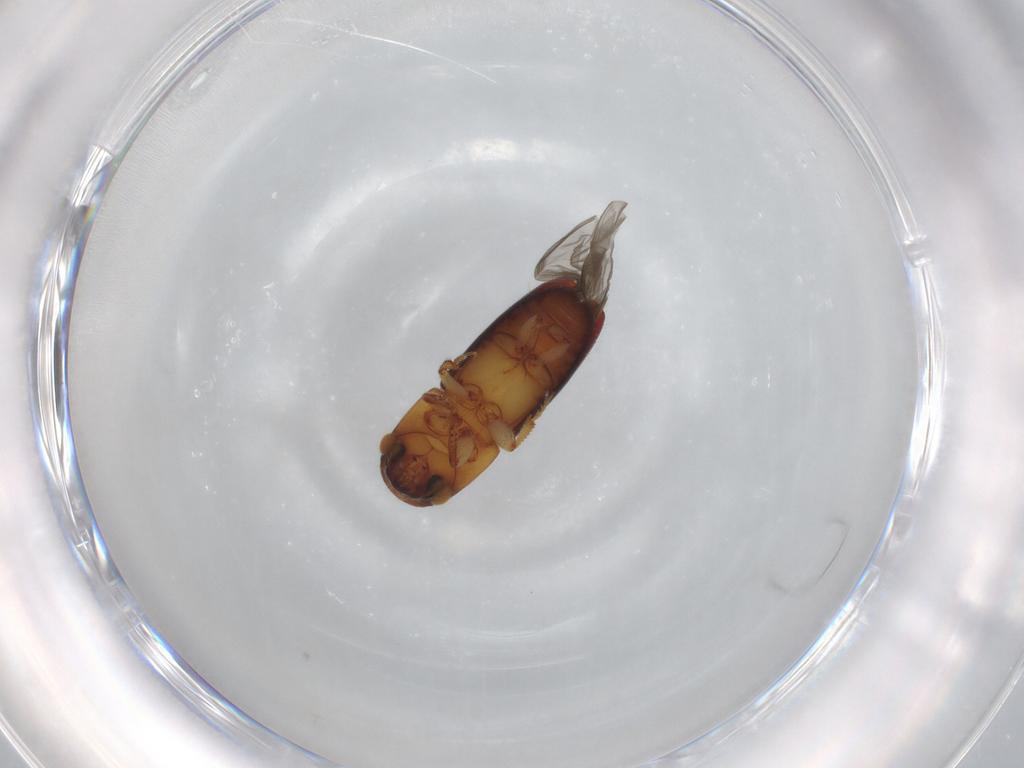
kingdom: Animalia
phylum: Arthropoda
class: Insecta
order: Coleoptera
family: Curculionidae
